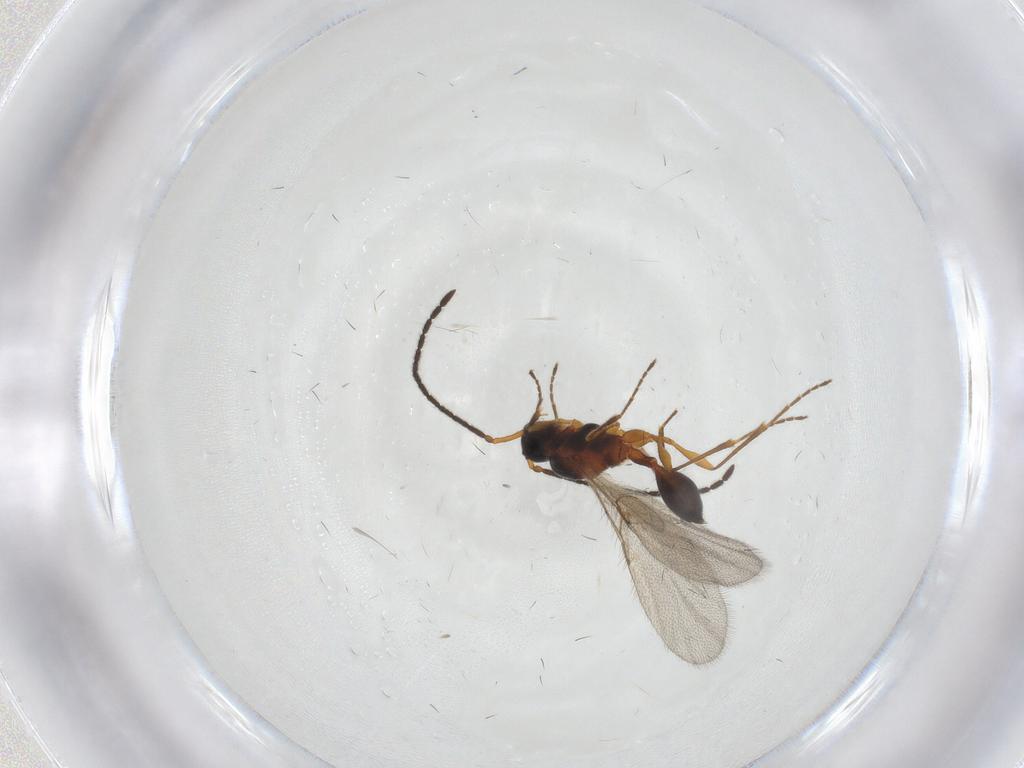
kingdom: Animalia
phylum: Arthropoda
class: Insecta
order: Hymenoptera
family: Diapriidae
